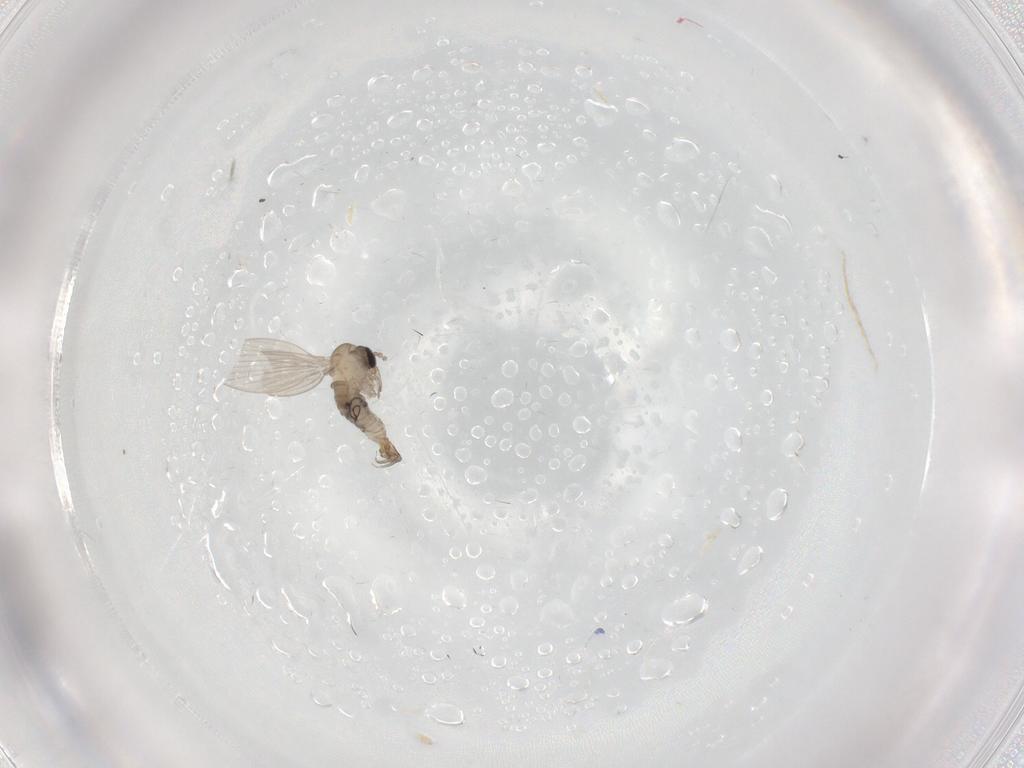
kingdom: Animalia
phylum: Arthropoda
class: Insecta
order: Diptera
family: Psychodidae
